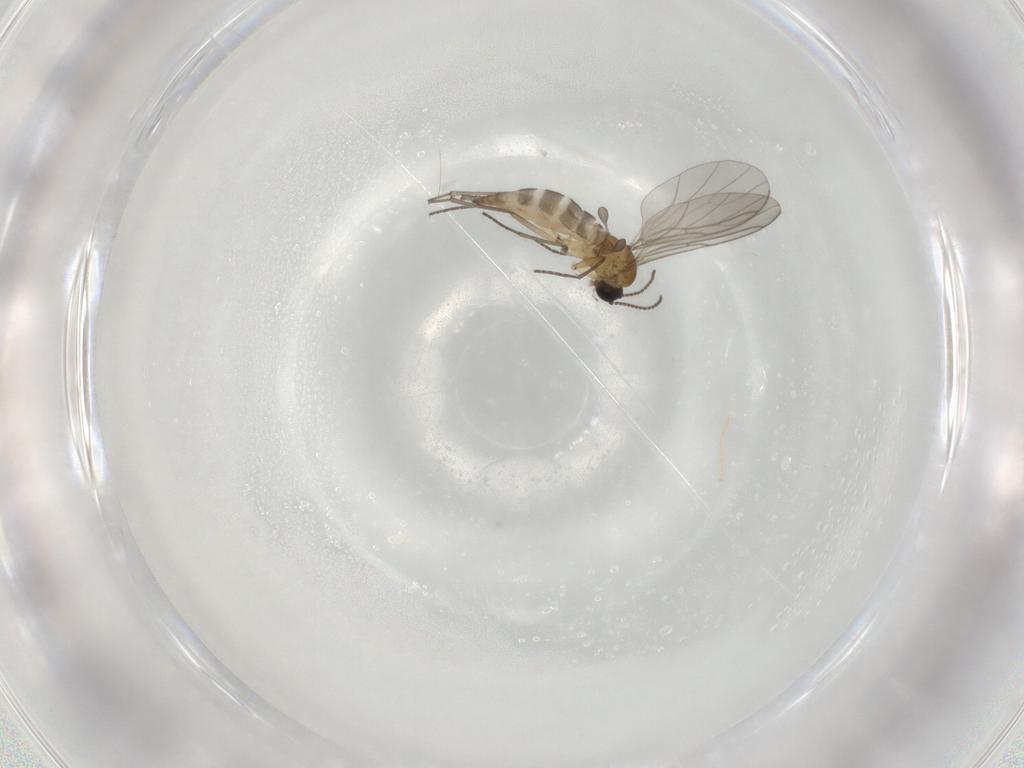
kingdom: Animalia
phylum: Arthropoda
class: Insecta
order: Diptera
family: Sciaridae
